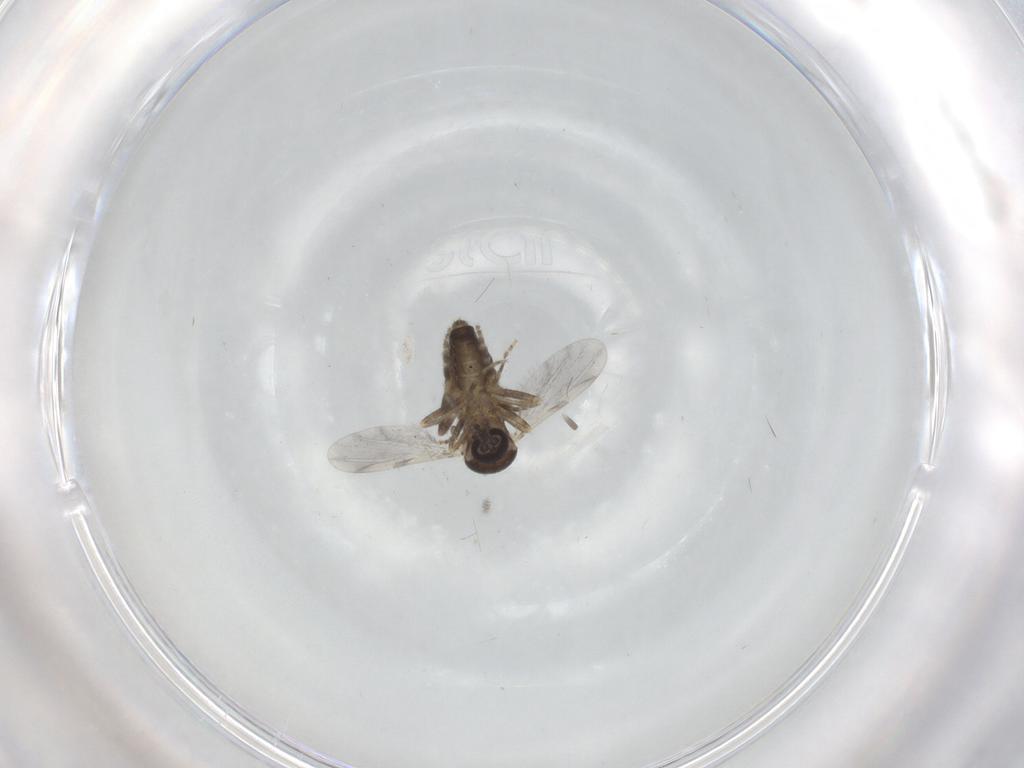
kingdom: Animalia
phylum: Arthropoda
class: Insecta
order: Diptera
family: Ceratopogonidae
